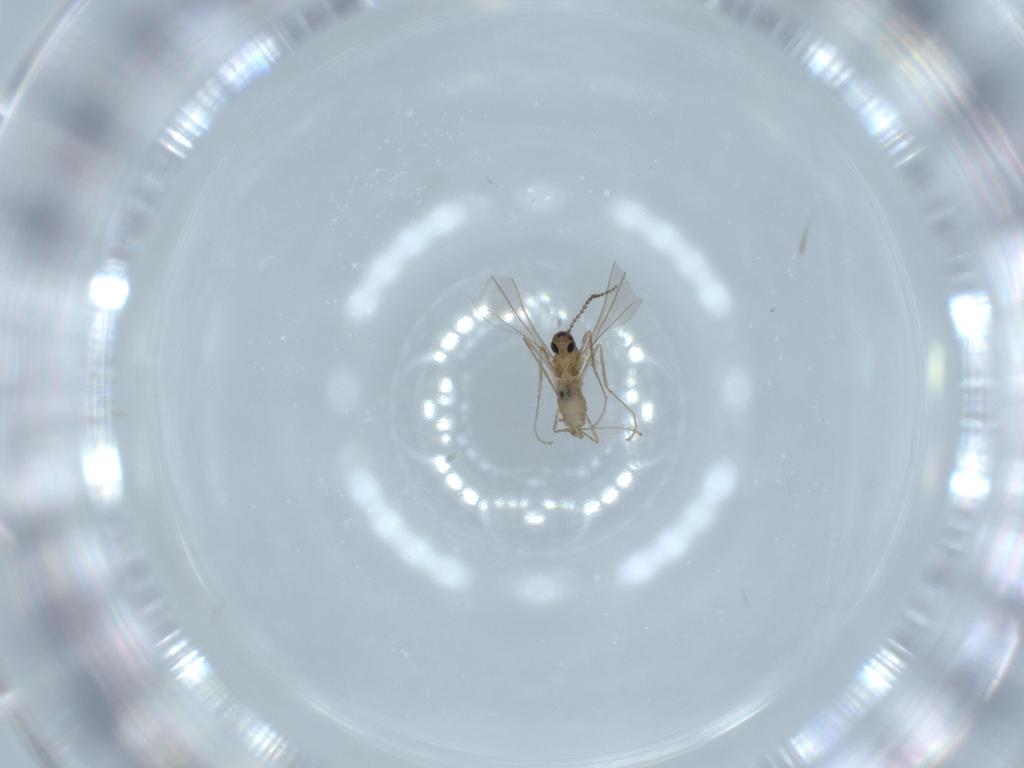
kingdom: Animalia
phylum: Arthropoda
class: Insecta
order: Diptera
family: Cecidomyiidae
